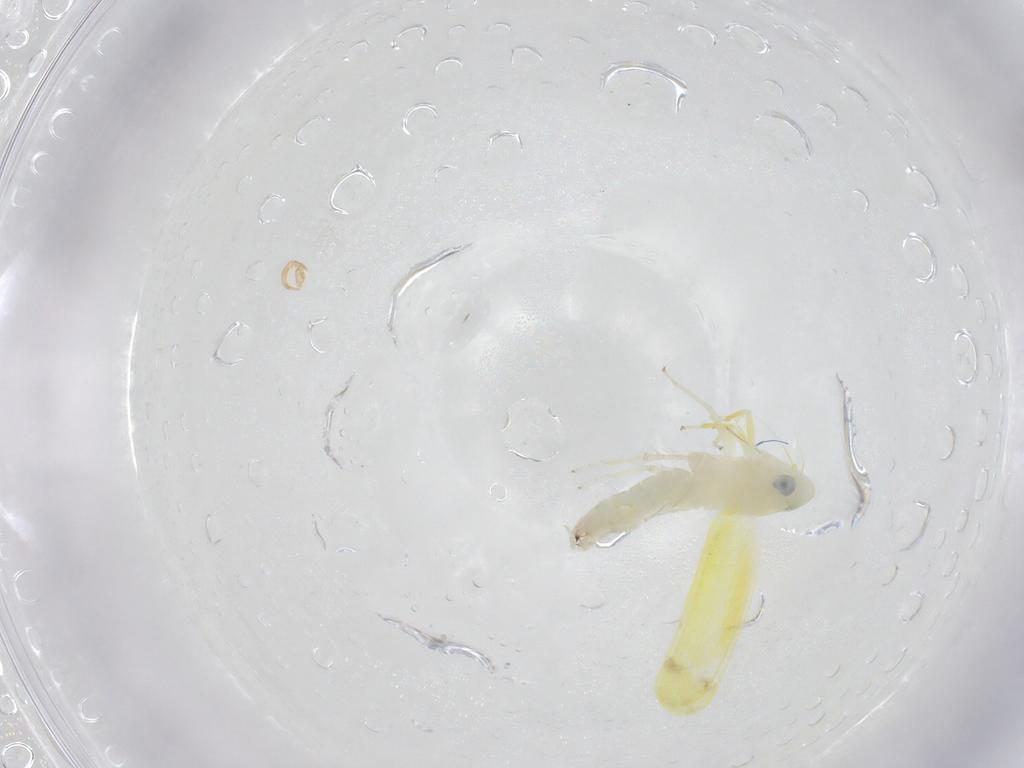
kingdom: Animalia
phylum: Arthropoda
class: Insecta
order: Hemiptera
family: Cicadellidae
